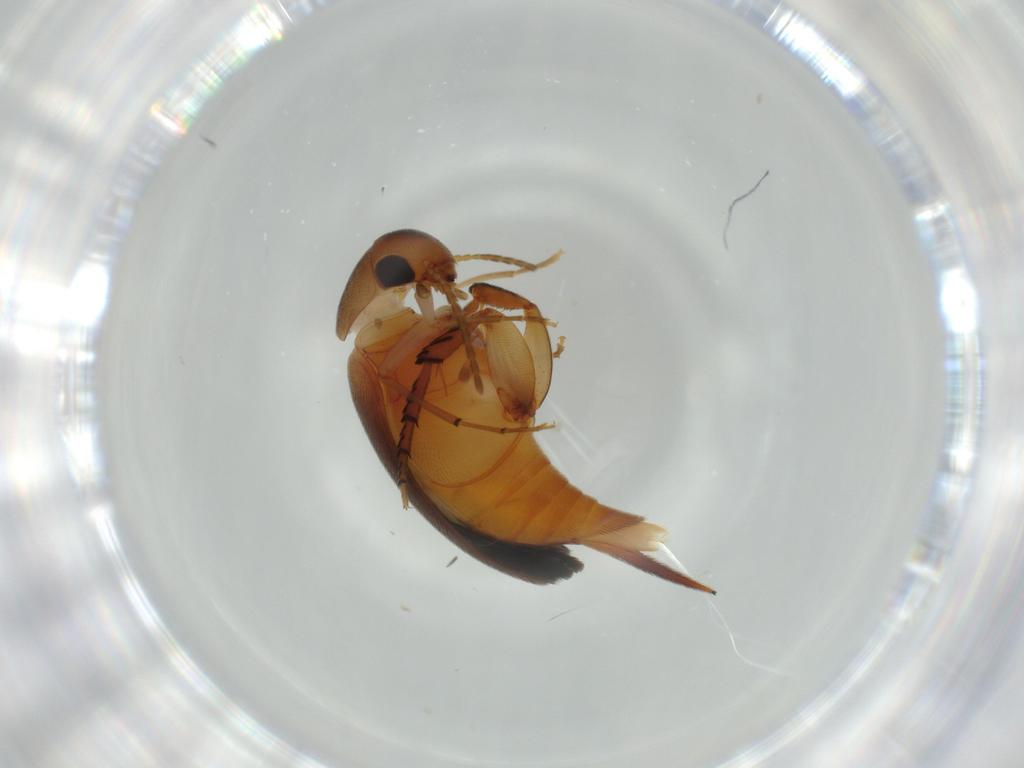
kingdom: Animalia
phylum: Arthropoda
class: Insecta
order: Coleoptera
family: Mordellidae
